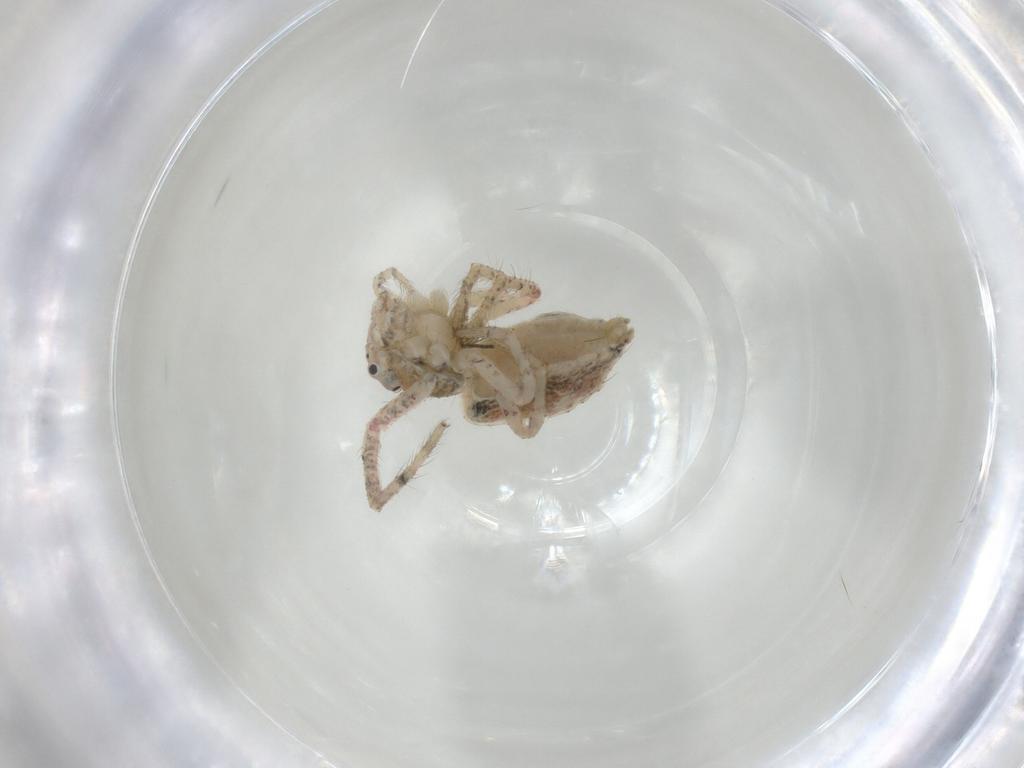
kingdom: Animalia
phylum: Arthropoda
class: Arachnida
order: Araneae
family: Thomisidae
